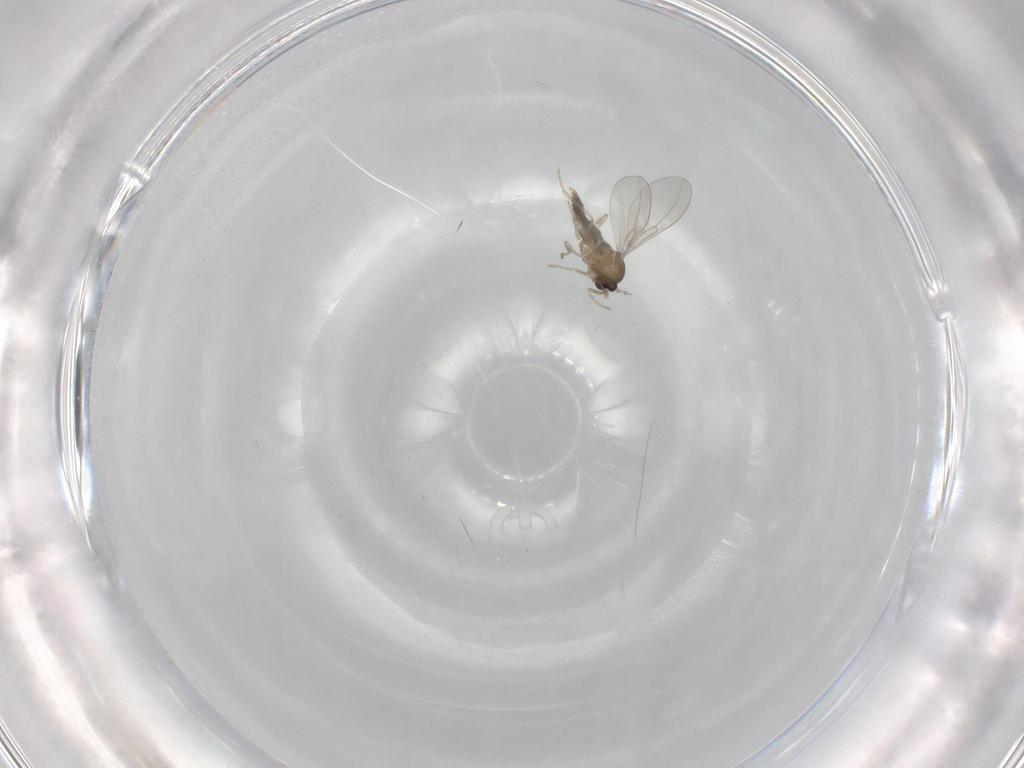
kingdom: Animalia
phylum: Arthropoda
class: Insecta
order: Diptera
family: Cecidomyiidae
